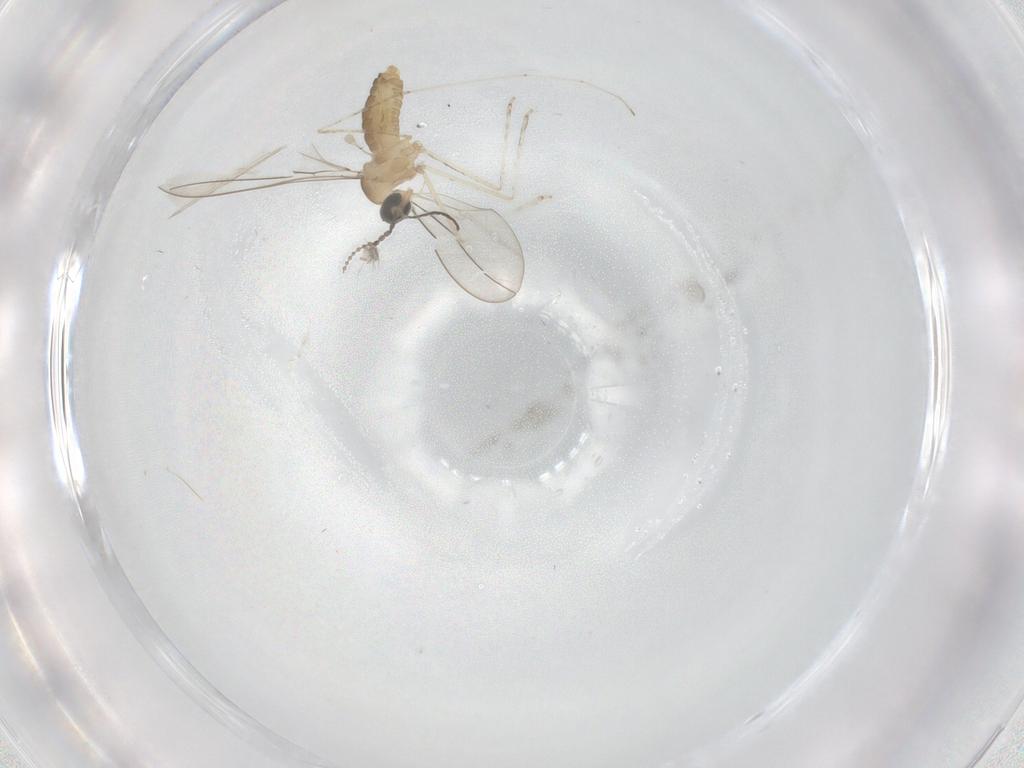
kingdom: Animalia
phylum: Arthropoda
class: Insecta
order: Diptera
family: Cecidomyiidae
